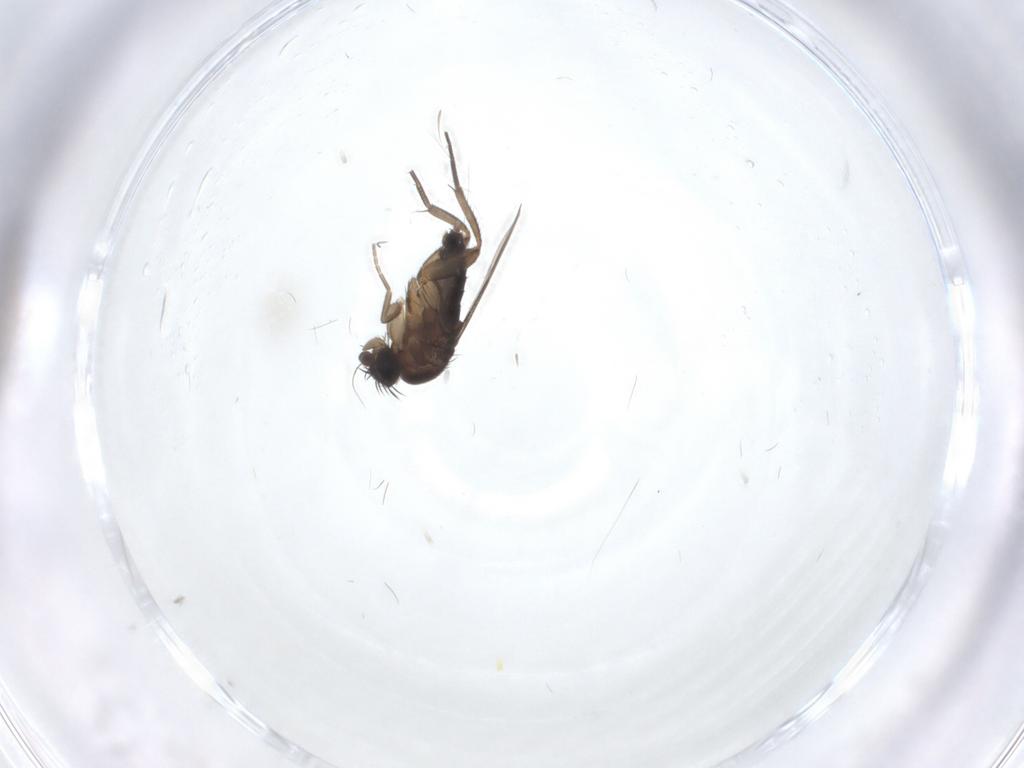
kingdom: Animalia
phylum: Arthropoda
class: Insecta
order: Diptera
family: Phoridae
